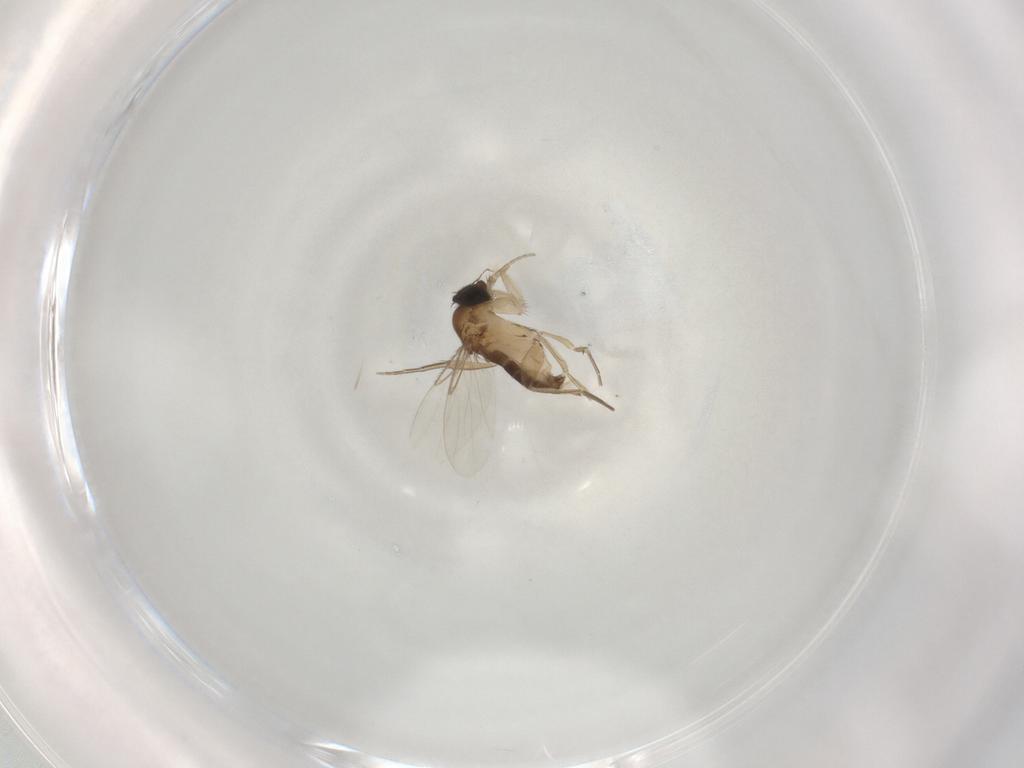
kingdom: Animalia
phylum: Arthropoda
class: Insecta
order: Diptera
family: Phoridae
